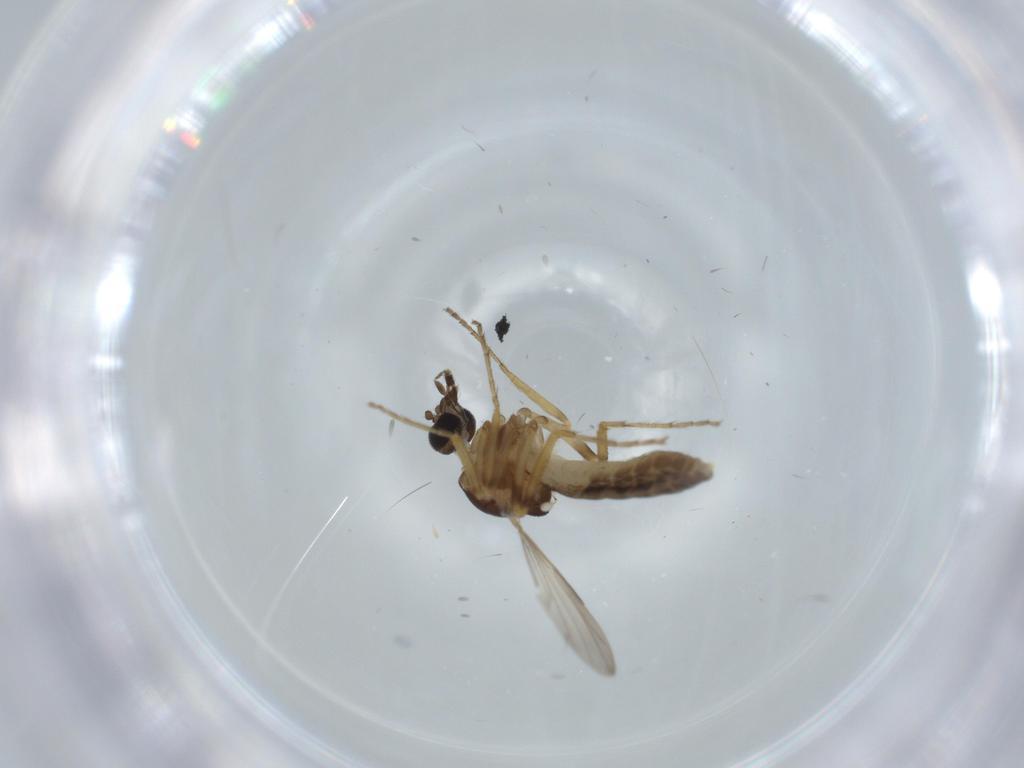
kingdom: Animalia
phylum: Arthropoda
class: Insecta
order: Diptera
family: Ceratopogonidae
